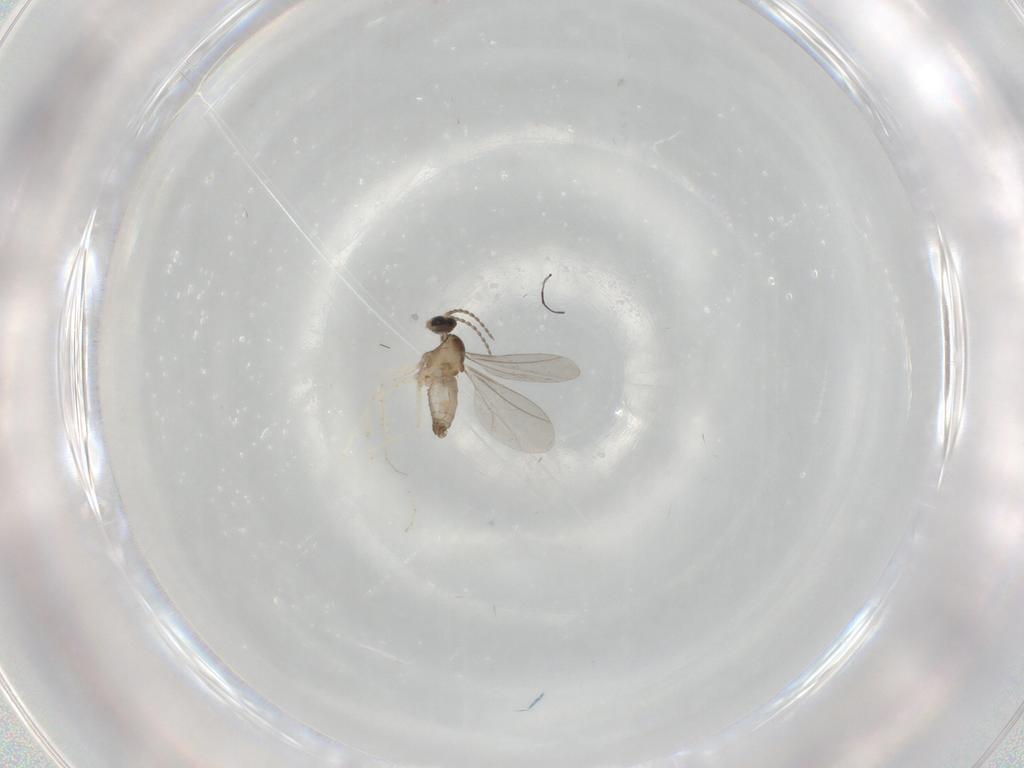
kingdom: Animalia
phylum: Arthropoda
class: Insecta
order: Diptera
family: Cecidomyiidae
